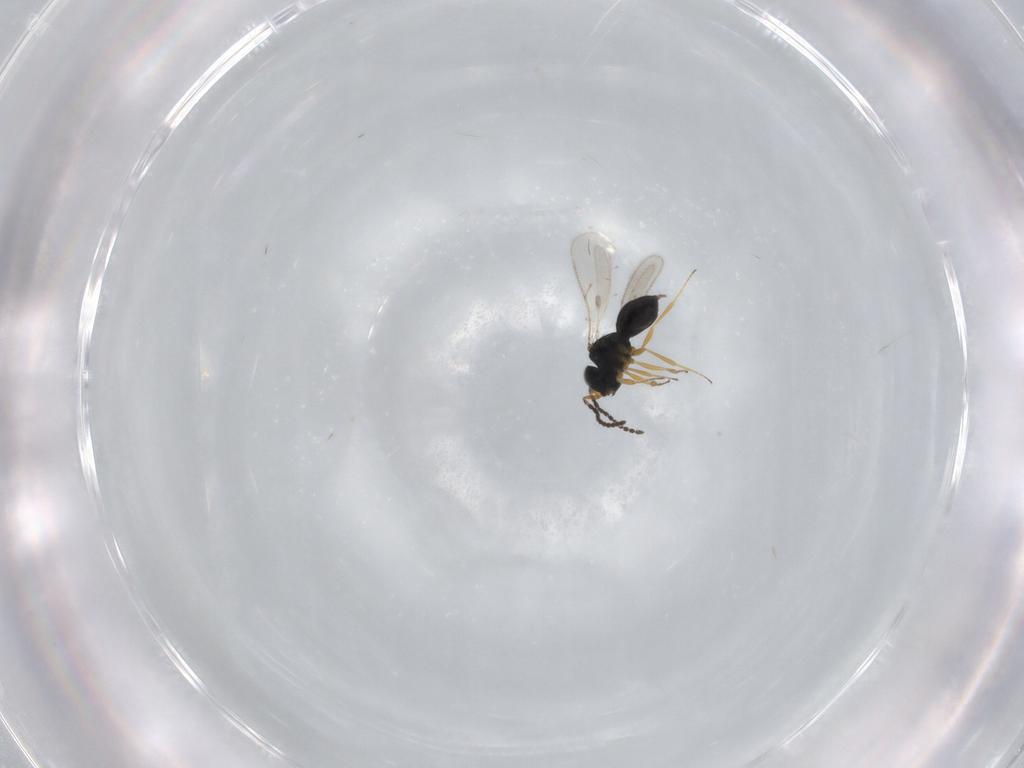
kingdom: Animalia
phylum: Arthropoda
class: Insecta
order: Hymenoptera
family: Scelionidae
